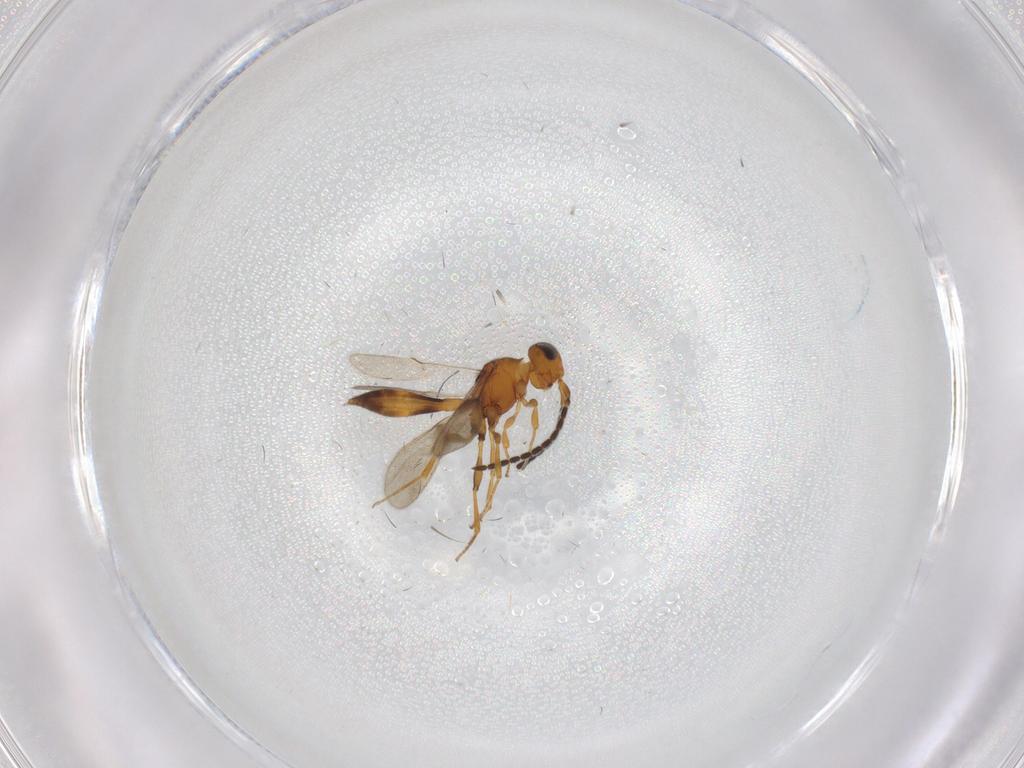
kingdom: Animalia
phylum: Arthropoda
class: Insecta
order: Hymenoptera
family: Scelionidae
